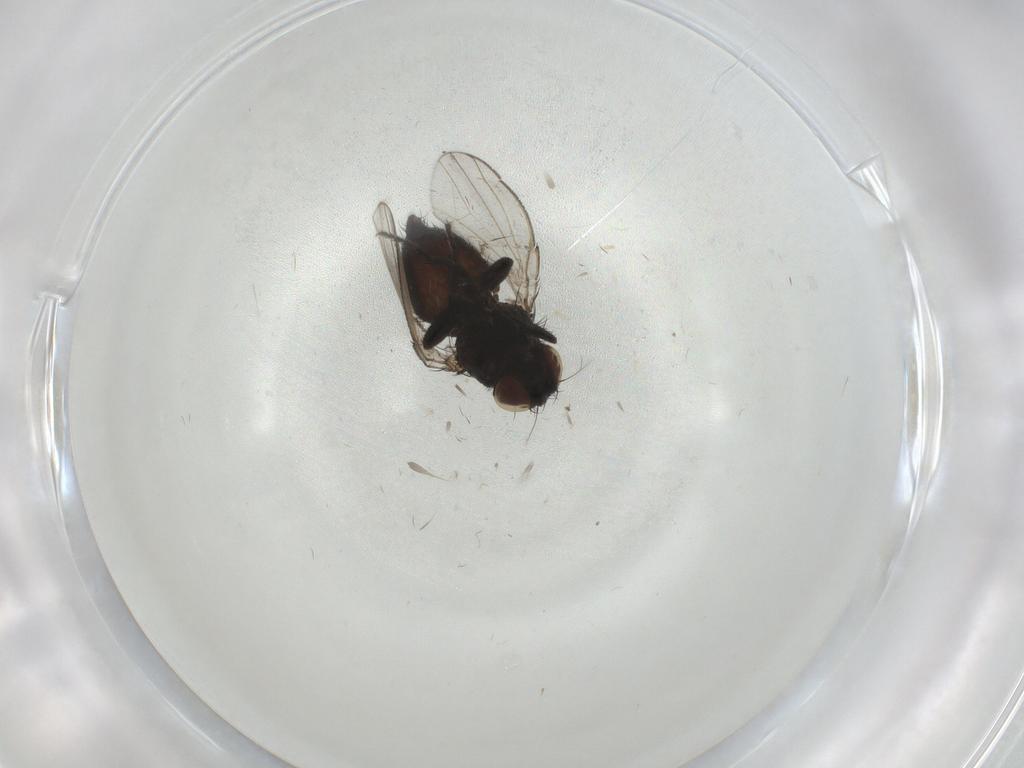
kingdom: Animalia
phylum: Arthropoda
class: Insecta
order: Diptera
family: Milichiidae
